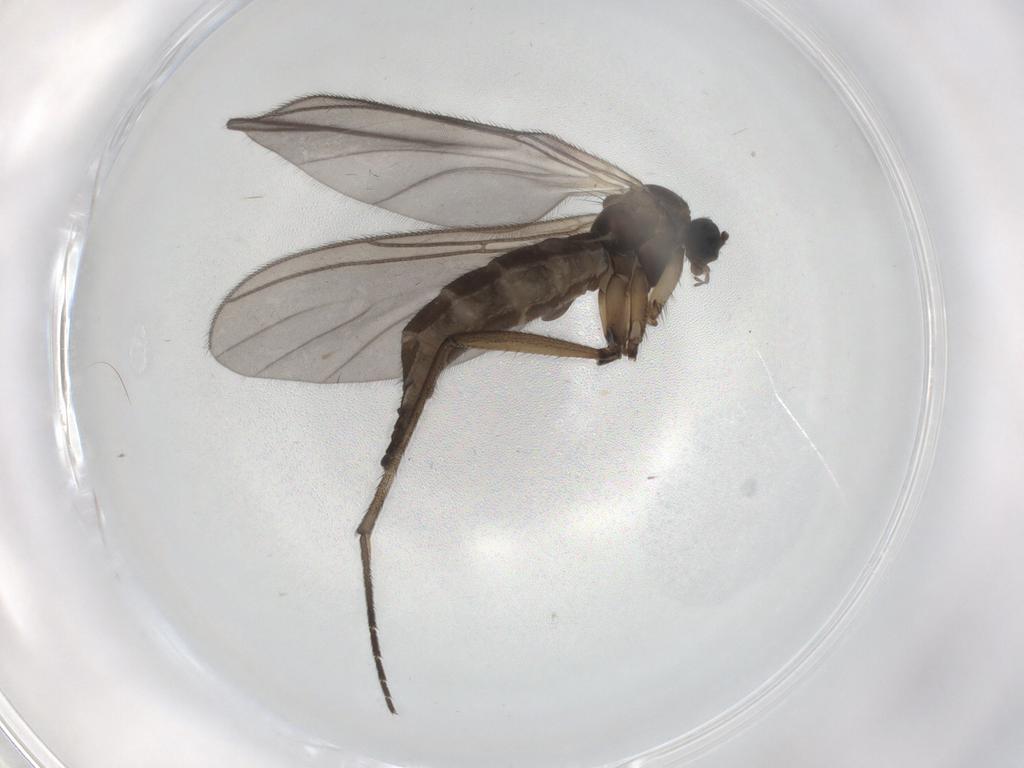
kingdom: Animalia
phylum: Arthropoda
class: Insecta
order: Diptera
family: Sciaridae
